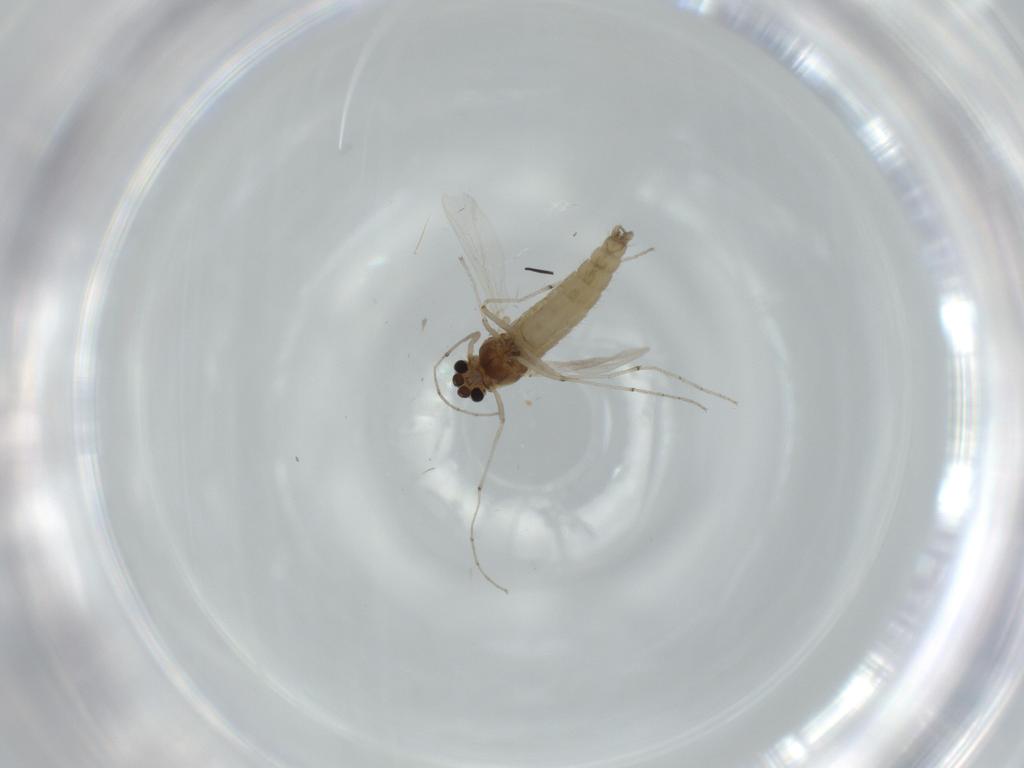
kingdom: Animalia
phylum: Arthropoda
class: Insecta
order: Diptera
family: Chironomidae
